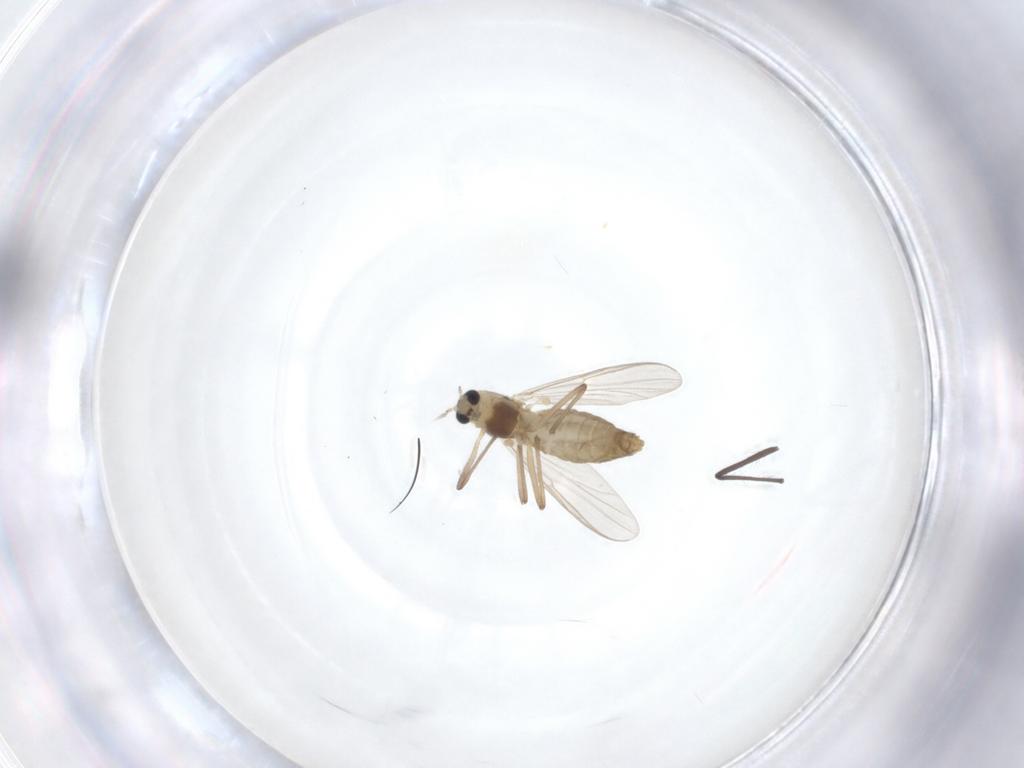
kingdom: Animalia
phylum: Arthropoda
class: Insecta
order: Diptera
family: Chironomidae
